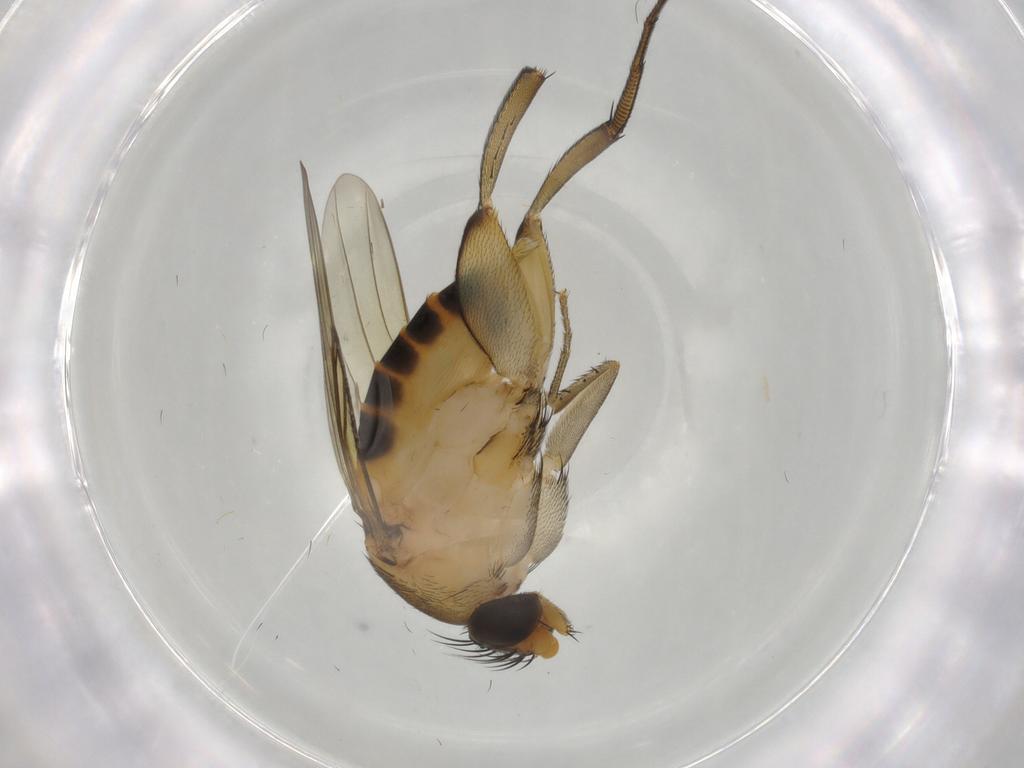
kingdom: Animalia
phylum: Arthropoda
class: Insecta
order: Diptera
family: Phoridae
